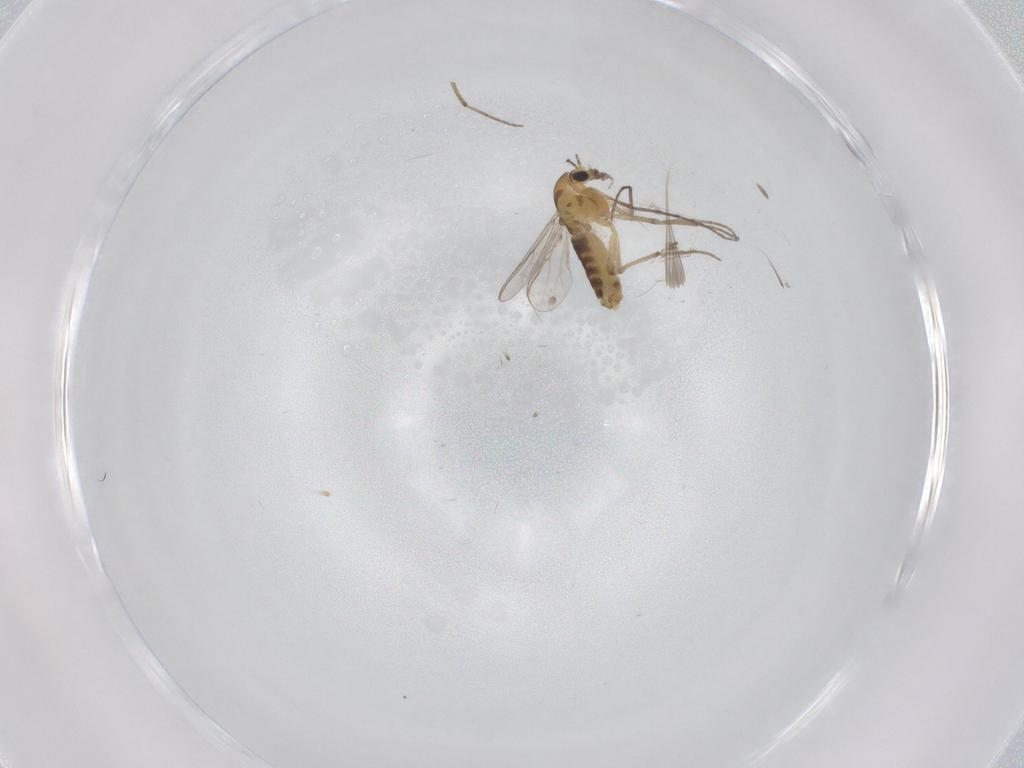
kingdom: Animalia
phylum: Arthropoda
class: Insecta
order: Diptera
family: Chironomidae
